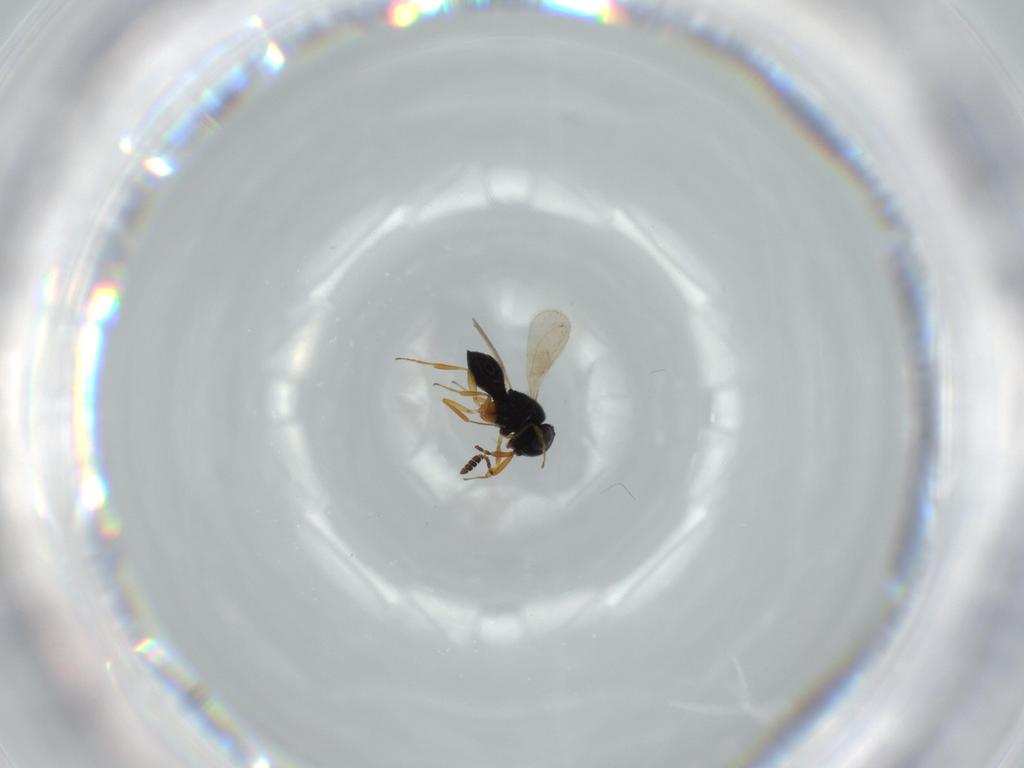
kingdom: Animalia
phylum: Arthropoda
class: Insecta
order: Hymenoptera
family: Scelionidae
